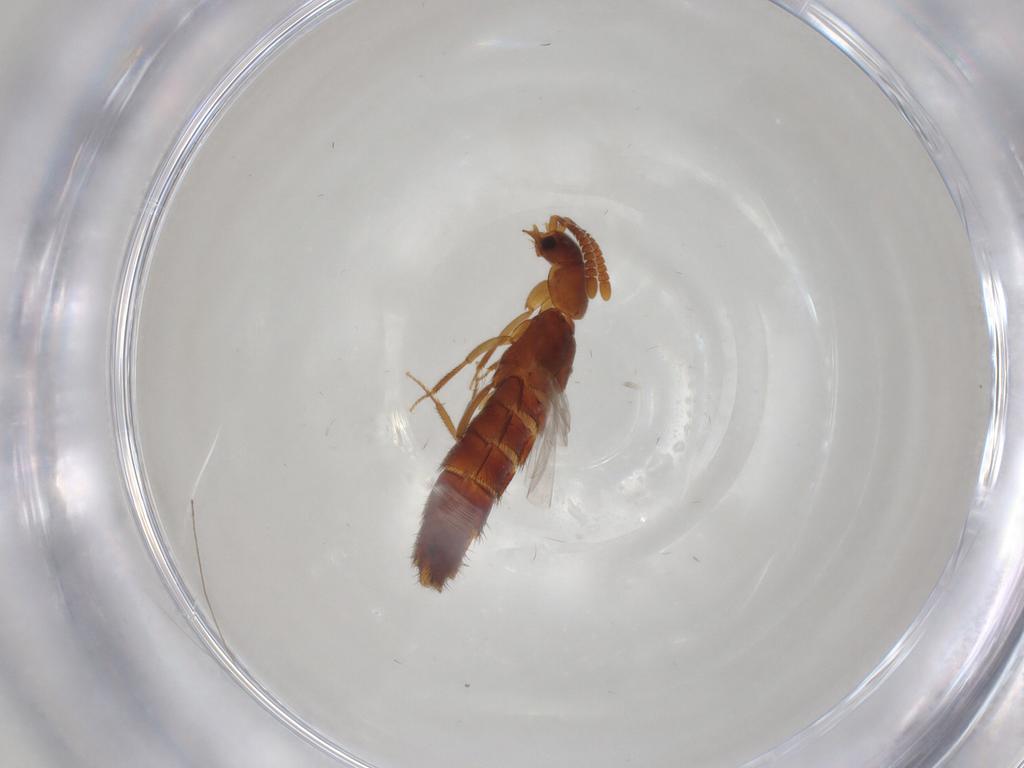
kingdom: Animalia
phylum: Arthropoda
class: Insecta
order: Coleoptera
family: Staphylinidae
